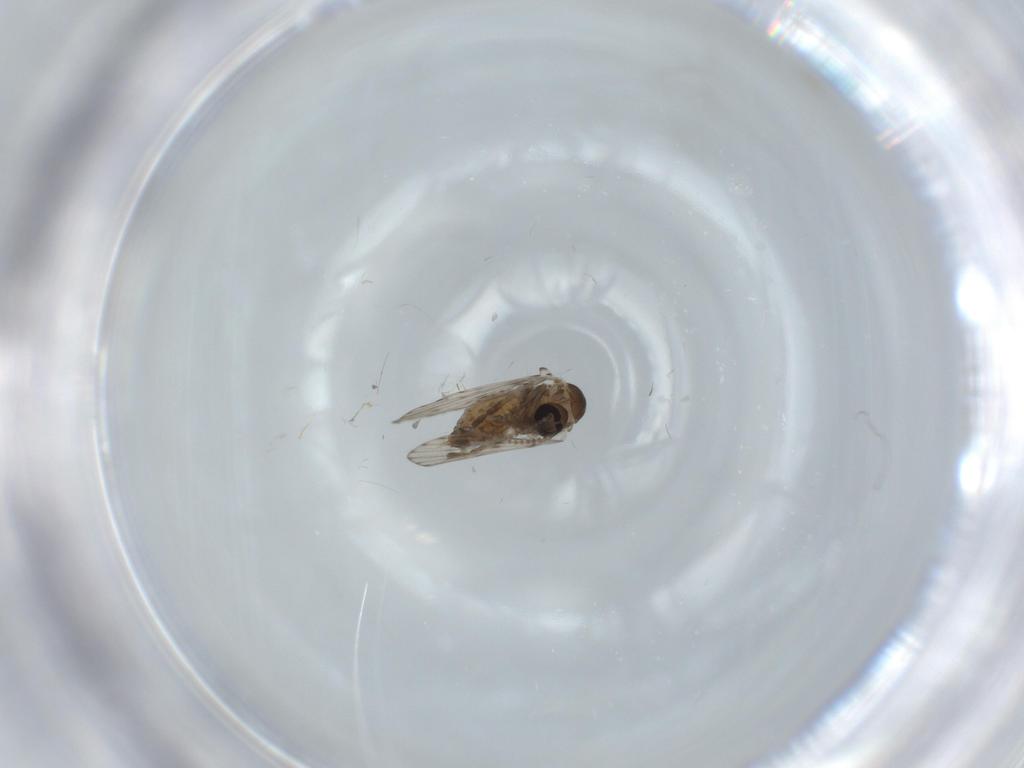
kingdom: Animalia
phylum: Arthropoda
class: Insecta
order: Diptera
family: Psychodidae
